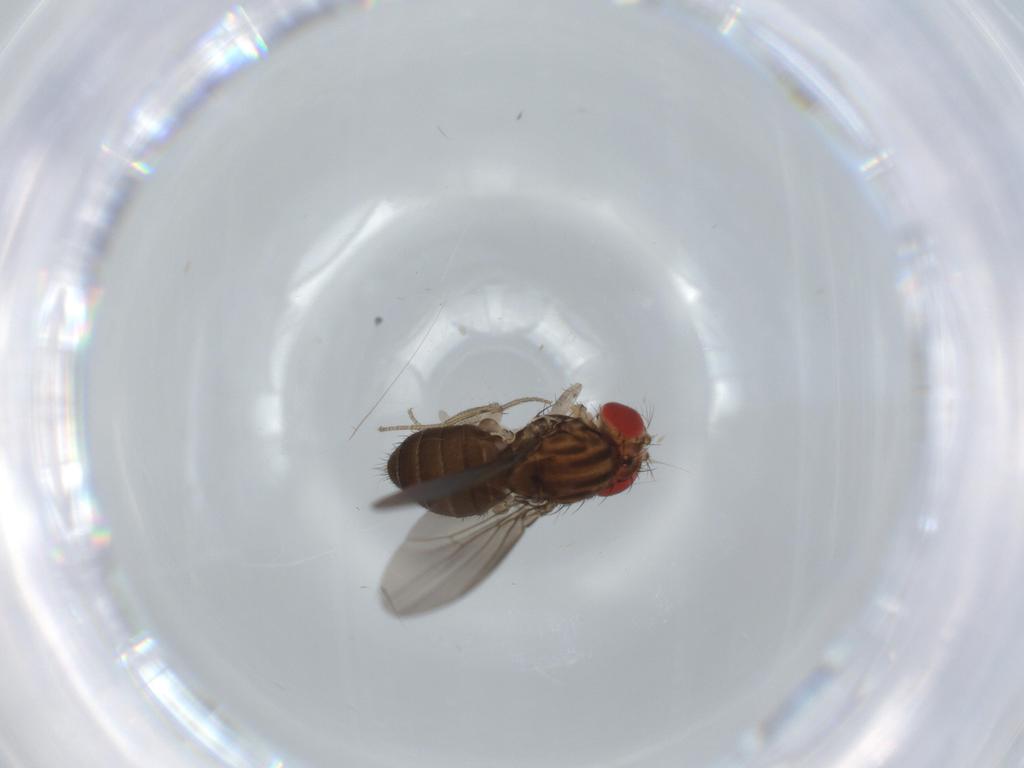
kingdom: Animalia
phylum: Arthropoda
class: Insecta
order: Diptera
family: Drosophilidae
